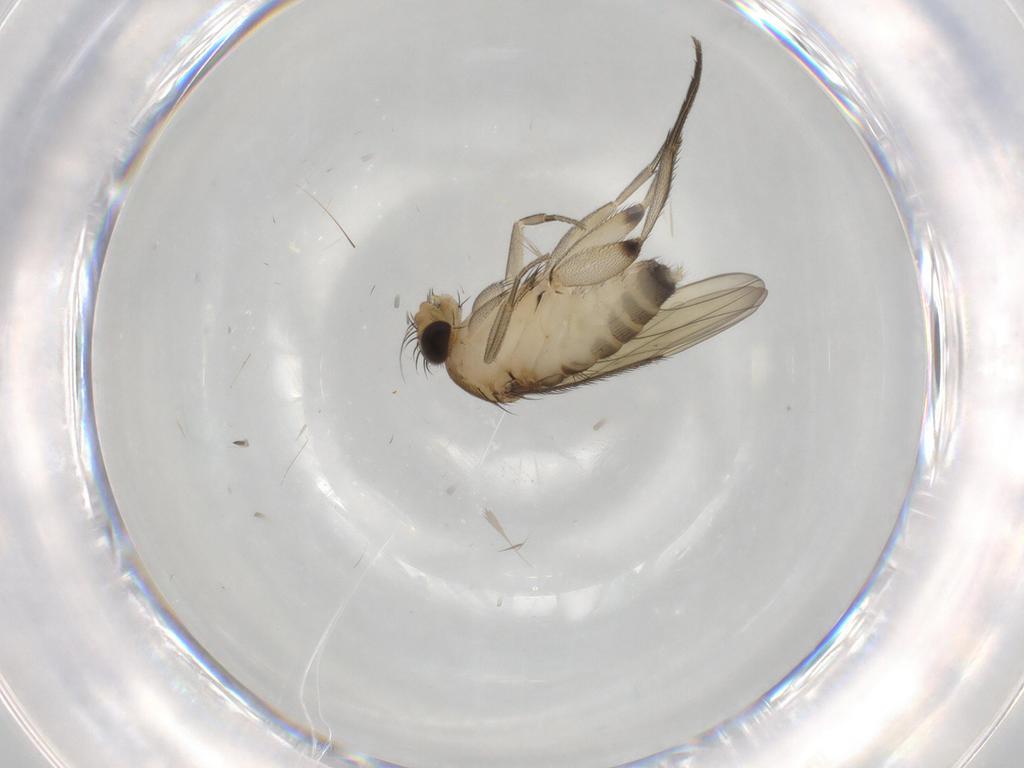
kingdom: Animalia
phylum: Arthropoda
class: Insecta
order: Diptera
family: Phoridae
